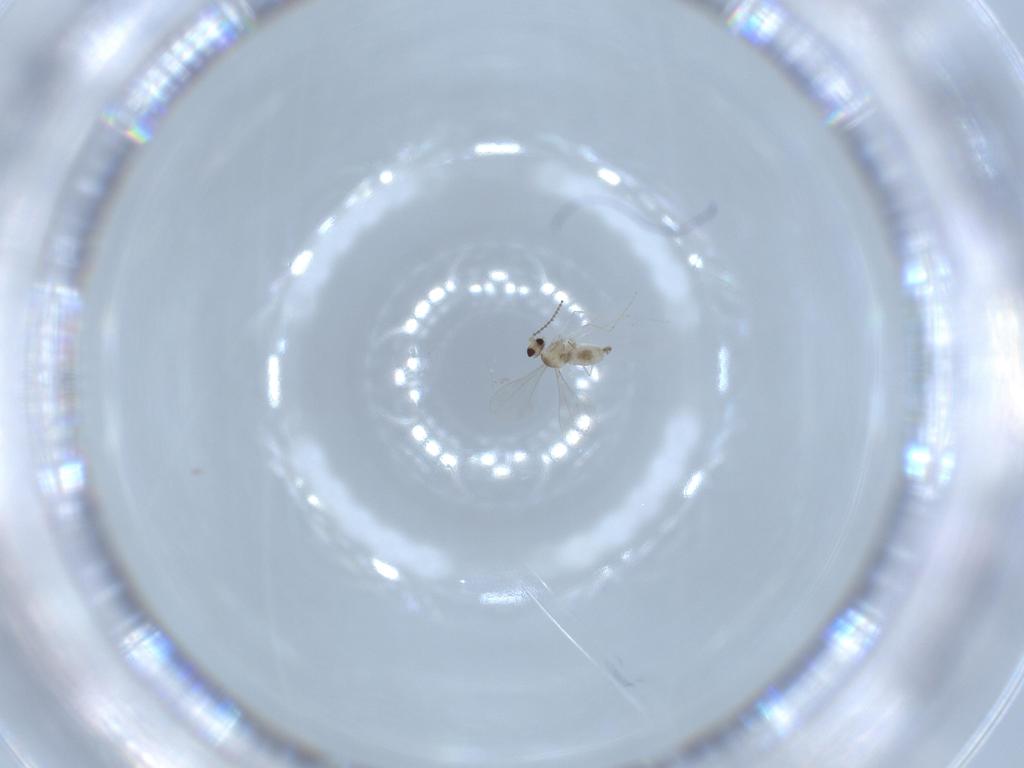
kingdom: Animalia
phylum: Arthropoda
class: Insecta
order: Diptera
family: Cecidomyiidae
